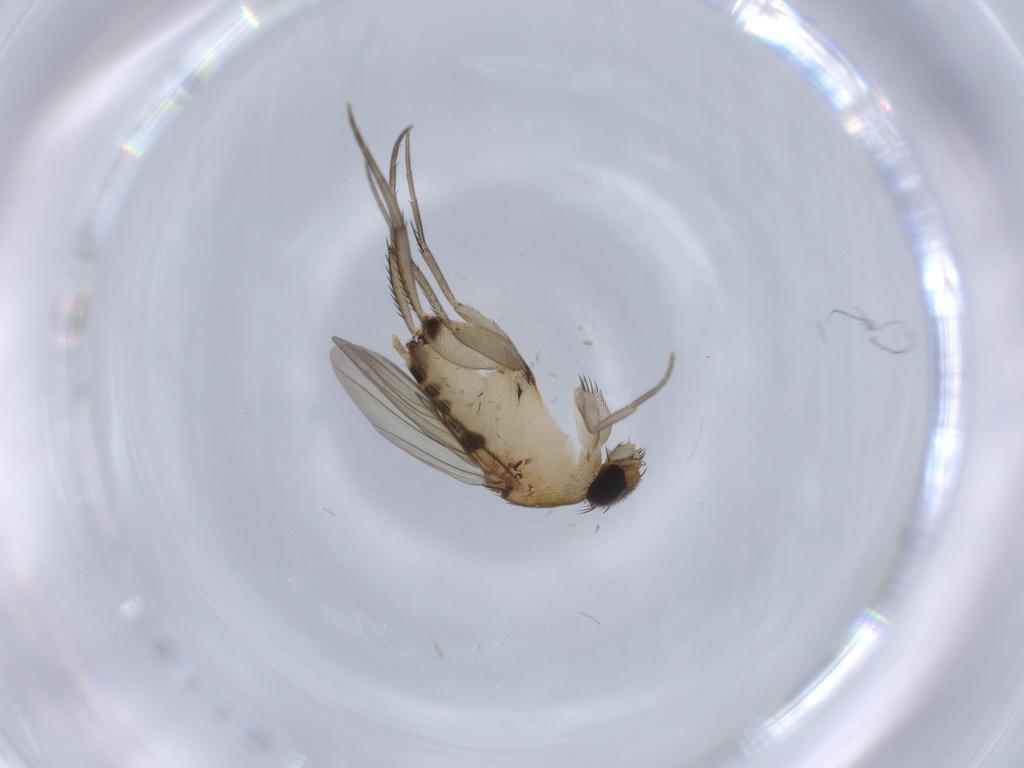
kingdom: Animalia
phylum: Arthropoda
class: Insecta
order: Diptera
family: Phoridae
